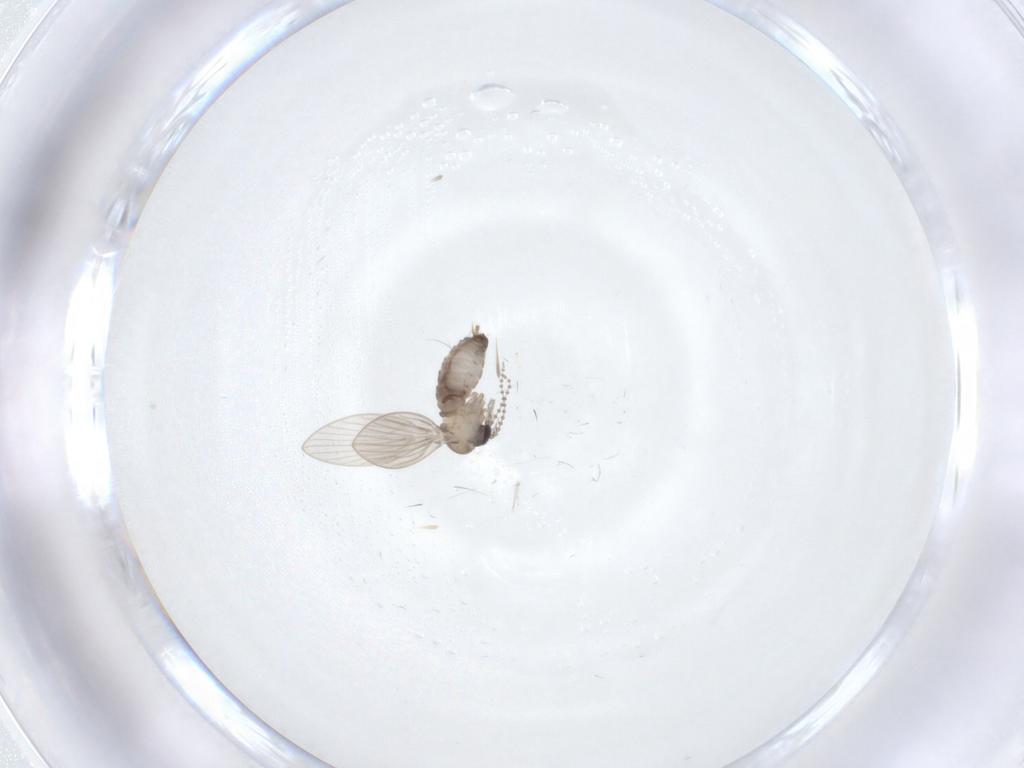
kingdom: Animalia
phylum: Arthropoda
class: Insecta
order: Diptera
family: Psychodidae
